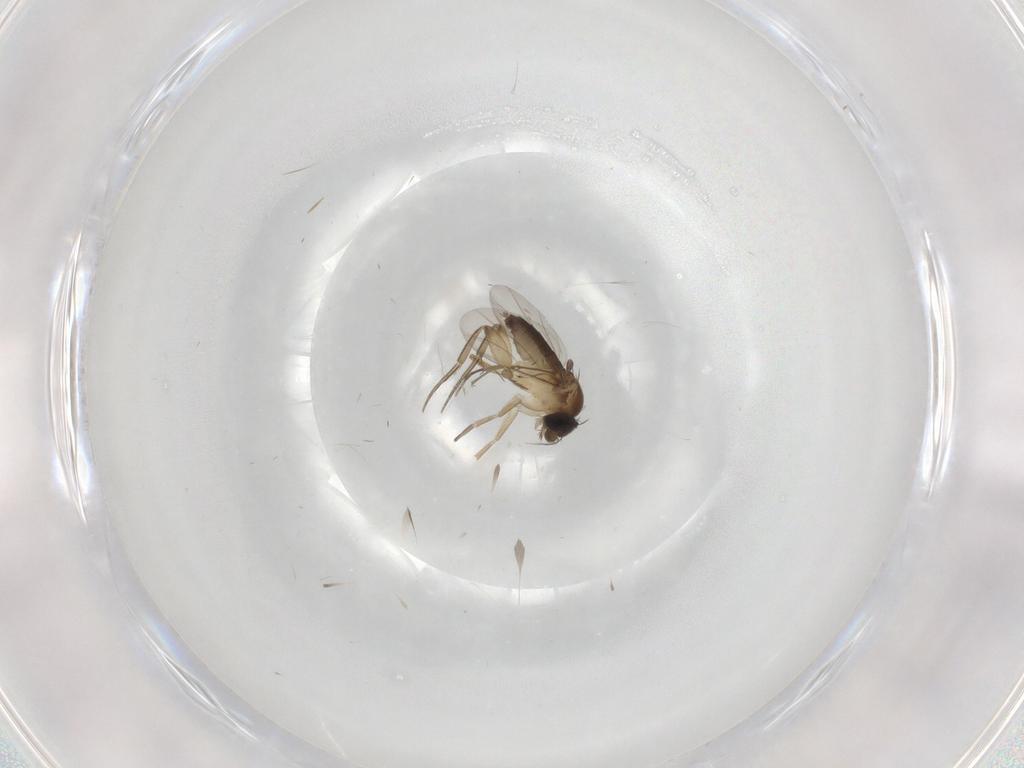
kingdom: Animalia
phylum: Arthropoda
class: Insecta
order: Diptera
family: Phoridae
